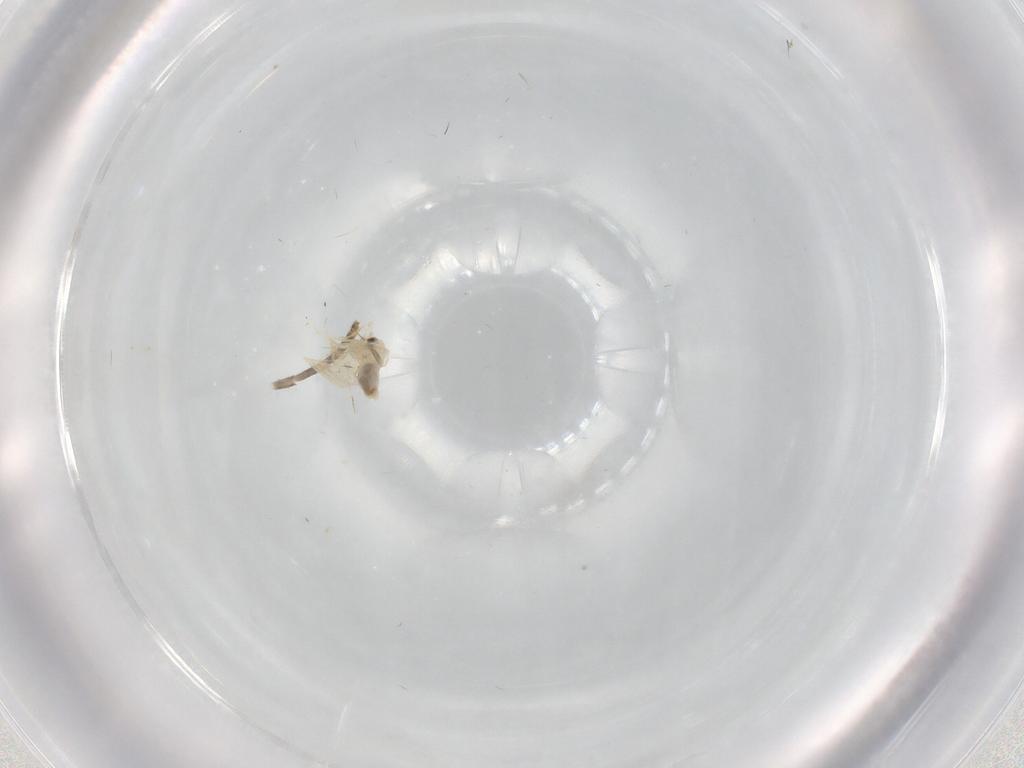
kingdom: Animalia
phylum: Arthropoda
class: Insecta
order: Hemiptera
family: Aleyrodidae
